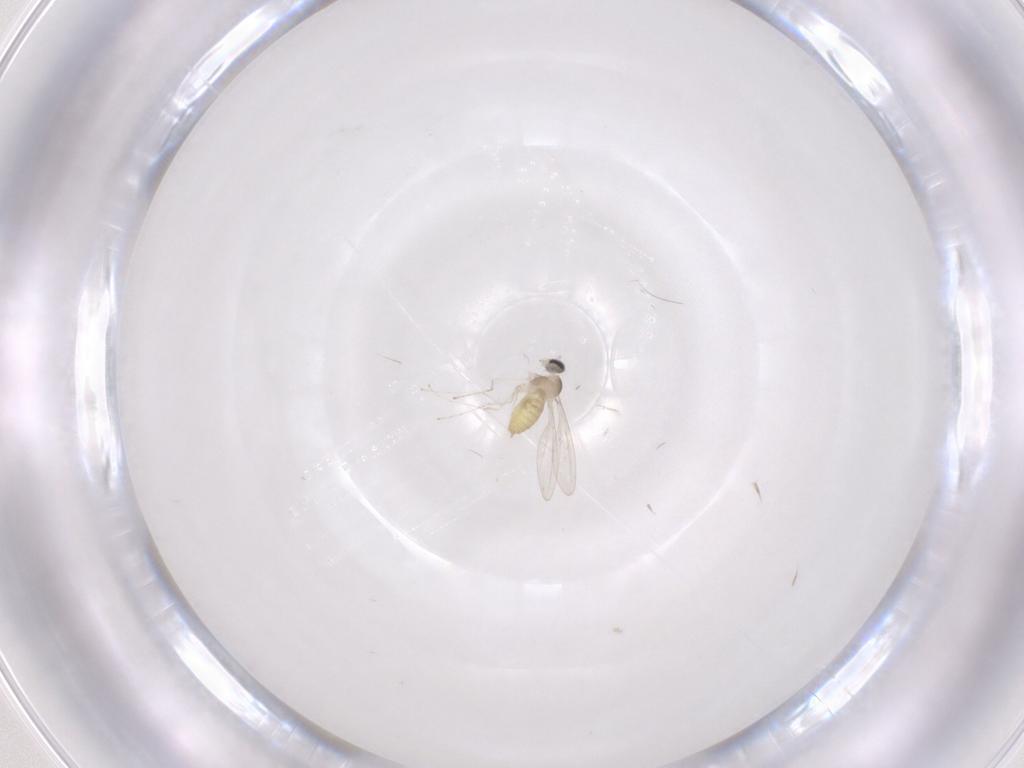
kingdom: Animalia
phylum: Arthropoda
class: Insecta
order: Diptera
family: Cecidomyiidae
